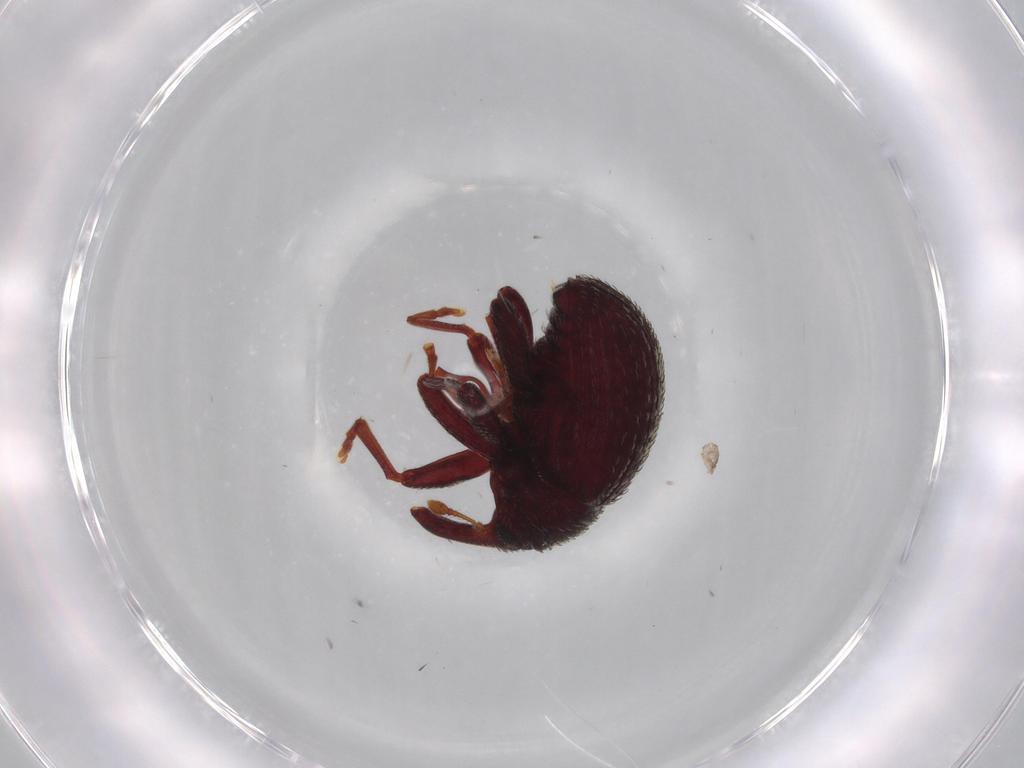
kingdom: Animalia
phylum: Arthropoda
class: Insecta
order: Coleoptera
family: Curculionidae
